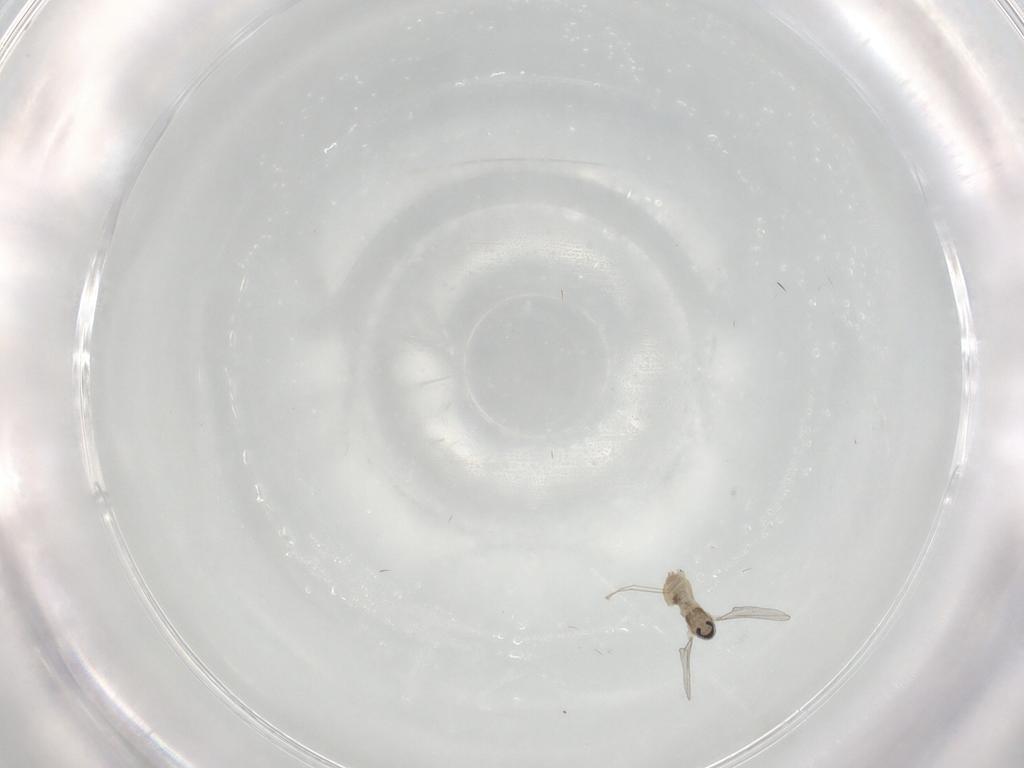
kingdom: Animalia
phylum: Arthropoda
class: Insecta
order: Diptera
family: Cecidomyiidae
